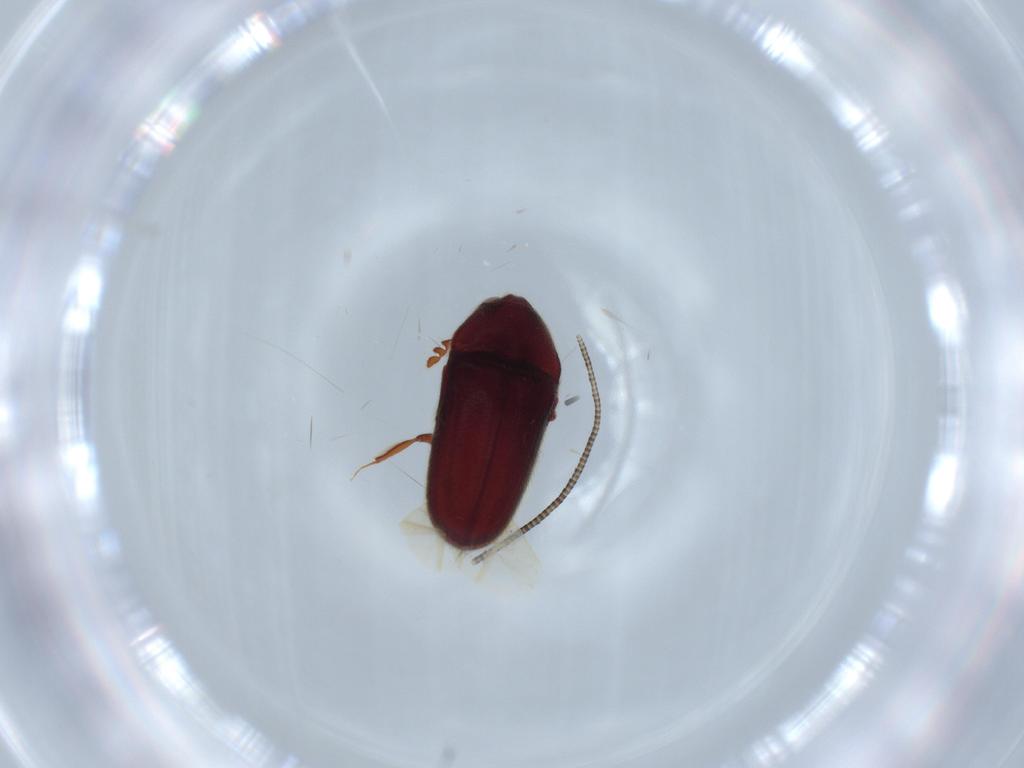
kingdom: Animalia
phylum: Arthropoda
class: Insecta
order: Coleoptera
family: Throscidae
